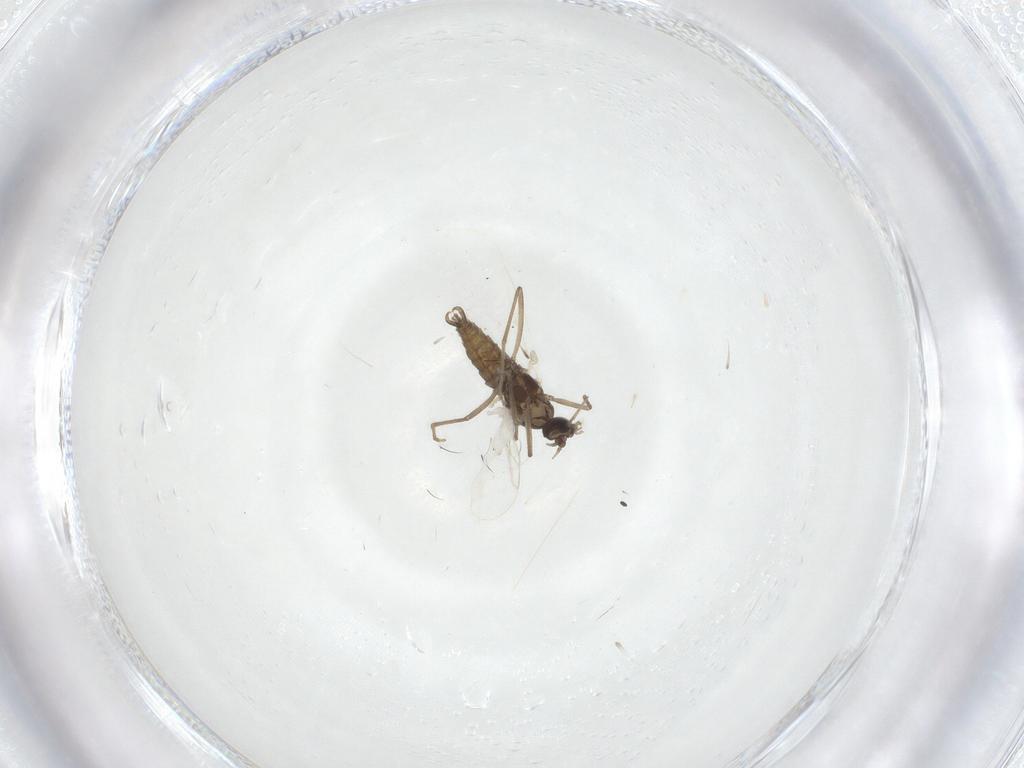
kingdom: Animalia
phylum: Arthropoda
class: Insecta
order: Diptera
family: Cecidomyiidae
